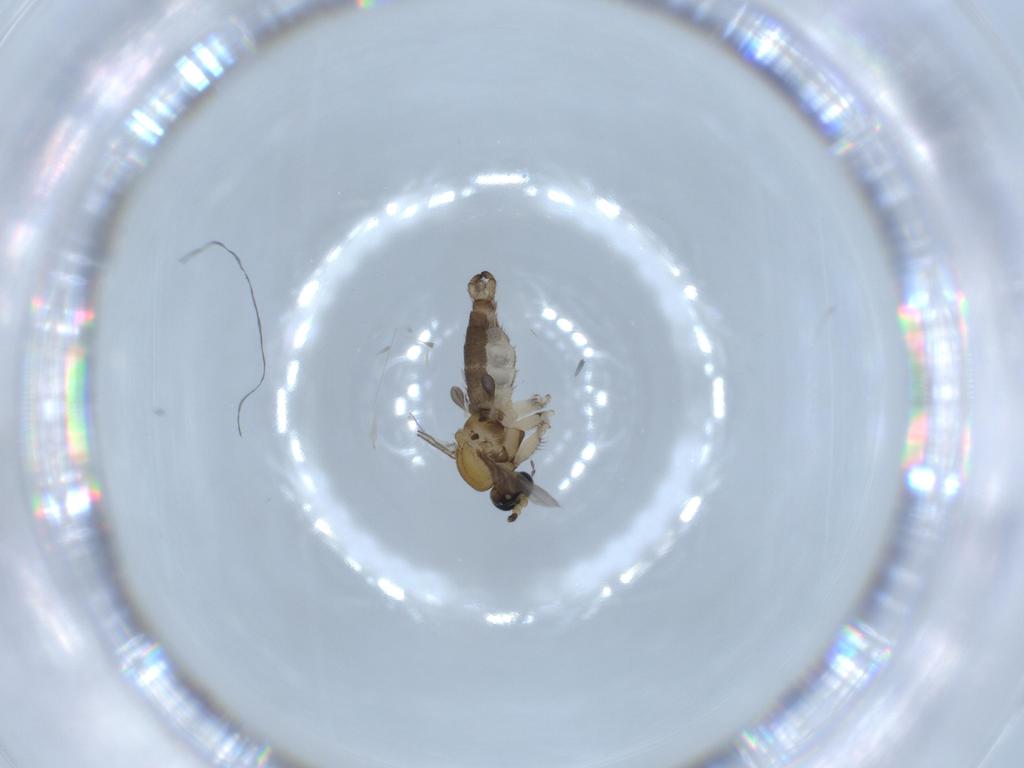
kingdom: Animalia
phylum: Arthropoda
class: Insecta
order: Diptera
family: Sciaridae
